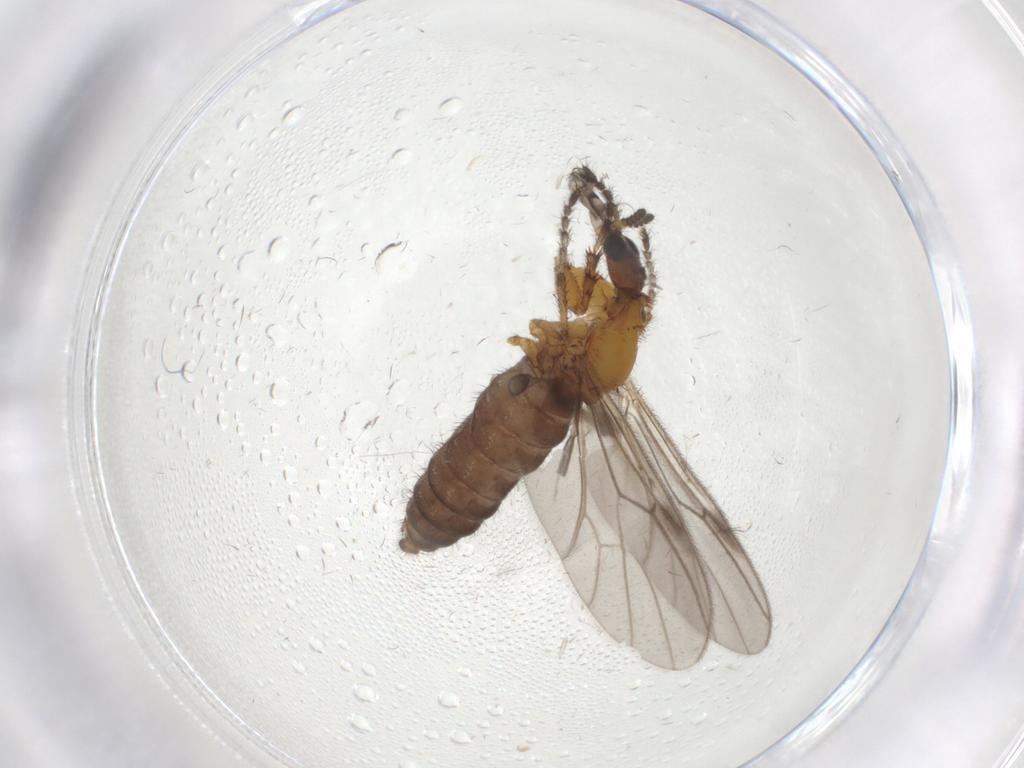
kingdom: Animalia
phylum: Arthropoda
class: Insecta
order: Diptera
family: Bibionidae
